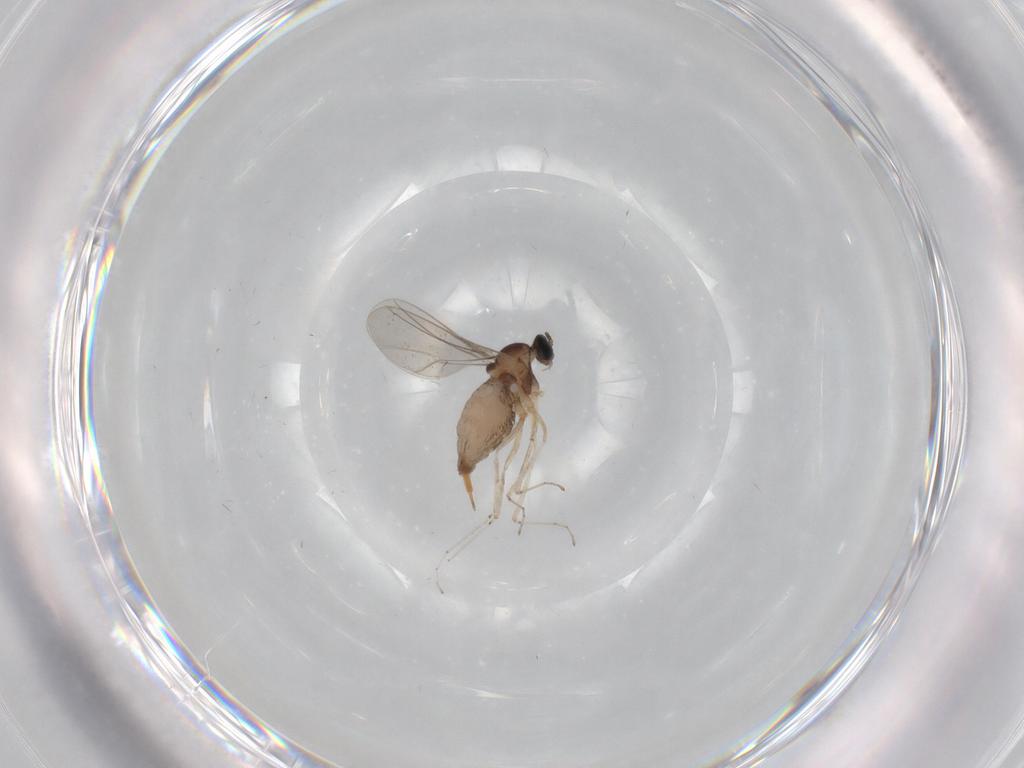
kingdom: Animalia
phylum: Arthropoda
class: Insecta
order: Diptera
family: Cecidomyiidae
